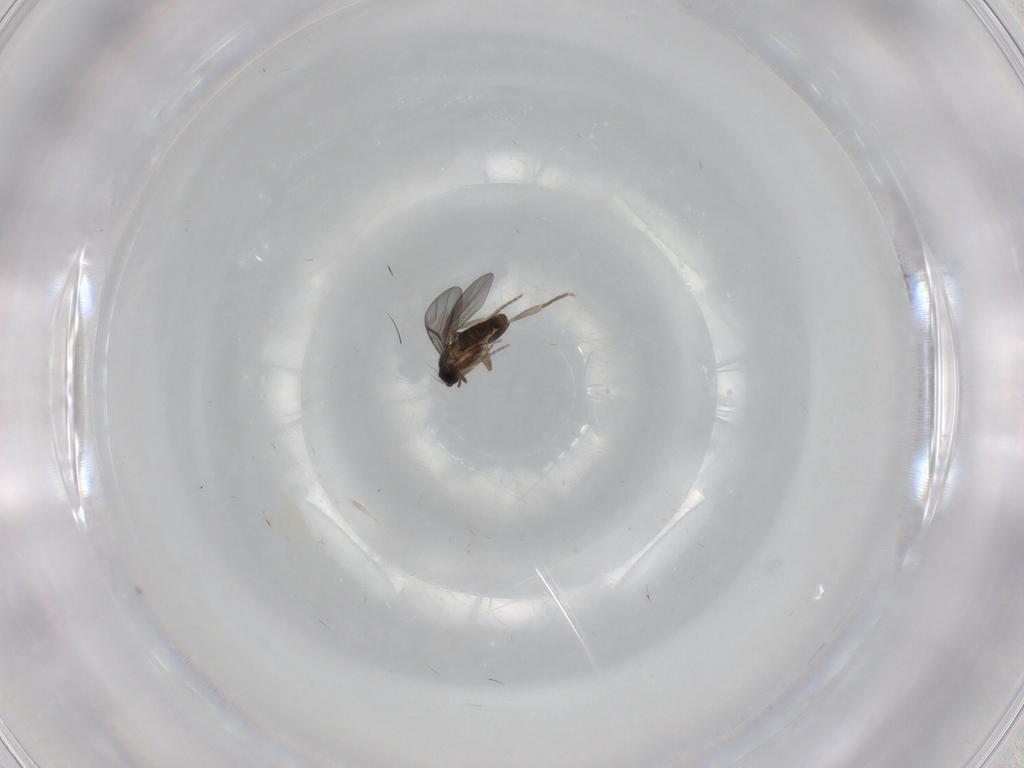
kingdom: Animalia
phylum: Arthropoda
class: Insecta
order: Diptera
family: Phoridae
